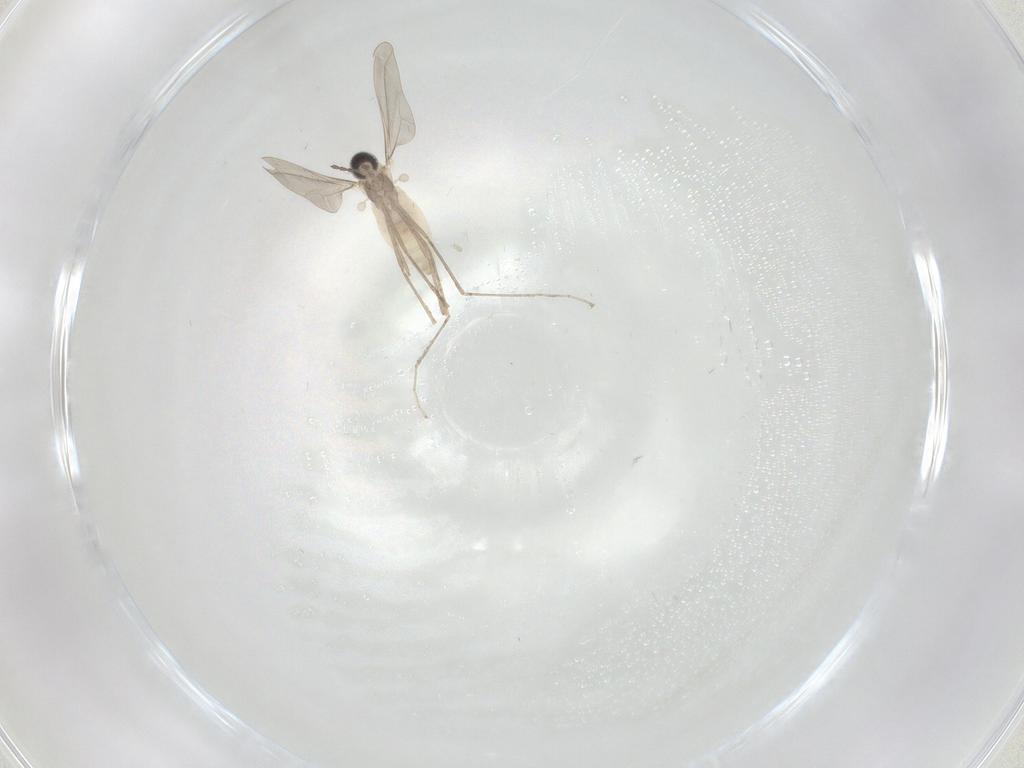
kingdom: Animalia
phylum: Arthropoda
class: Insecta
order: Diptera
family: Cecidomyiidae
